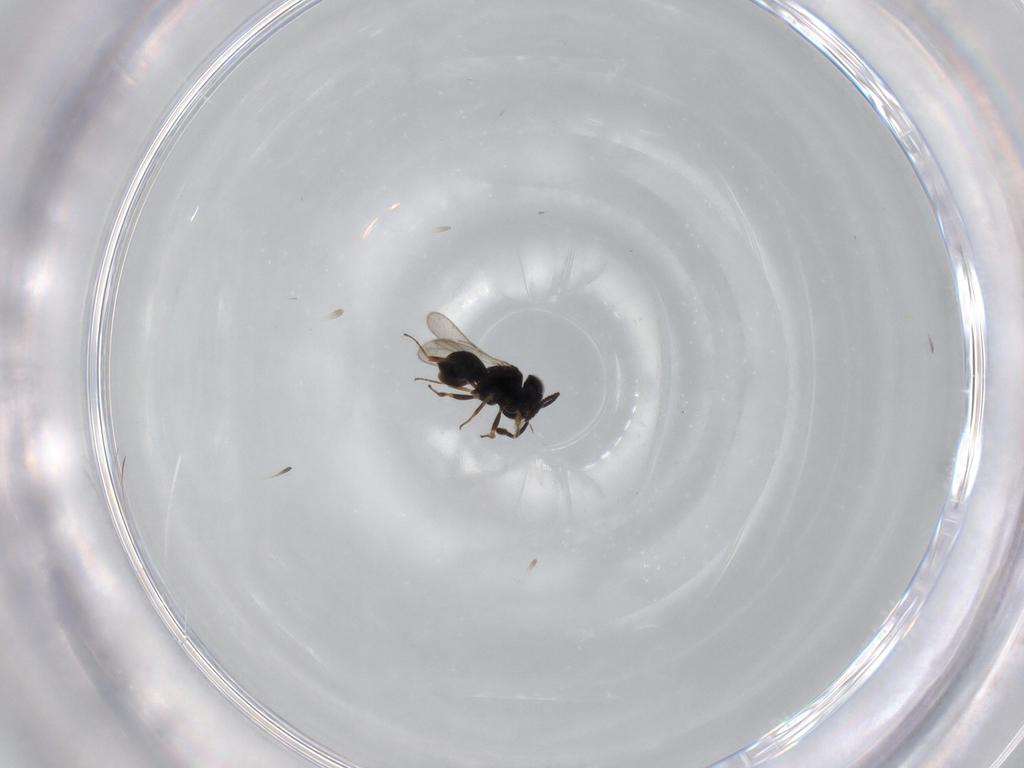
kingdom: Animalia
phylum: Arthropoda
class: Insecta
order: Hymenoptera
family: Scelionidae
